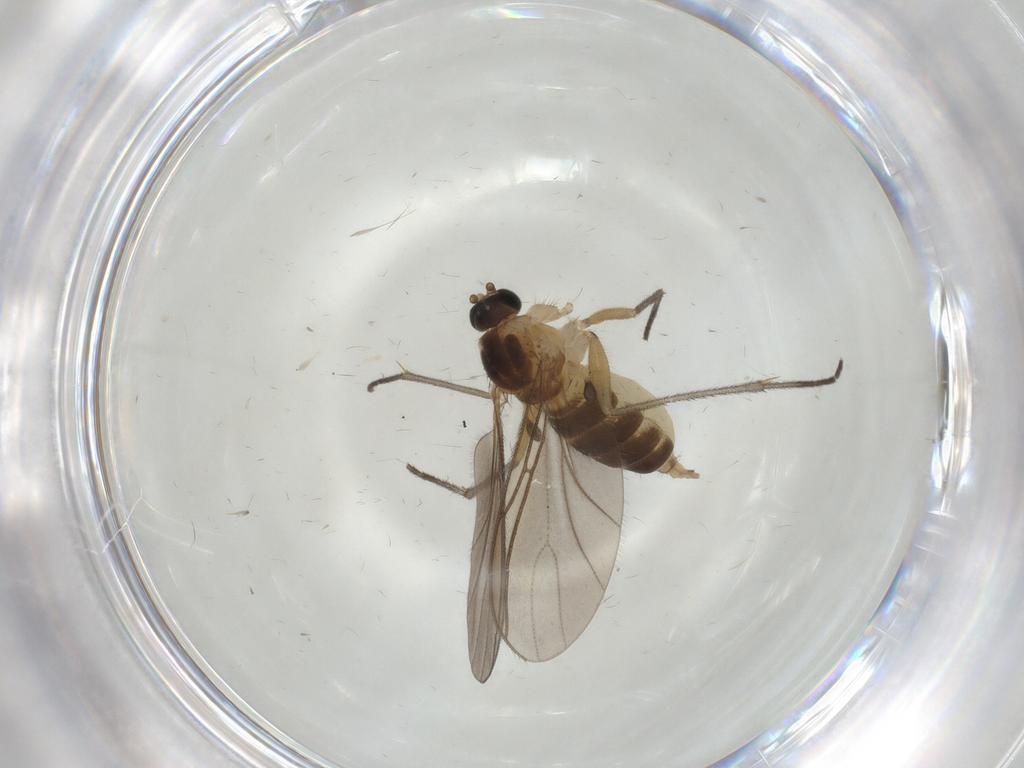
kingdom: Animalia
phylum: Arthropoda
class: Insecta
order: Diptera
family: Sciaridae
